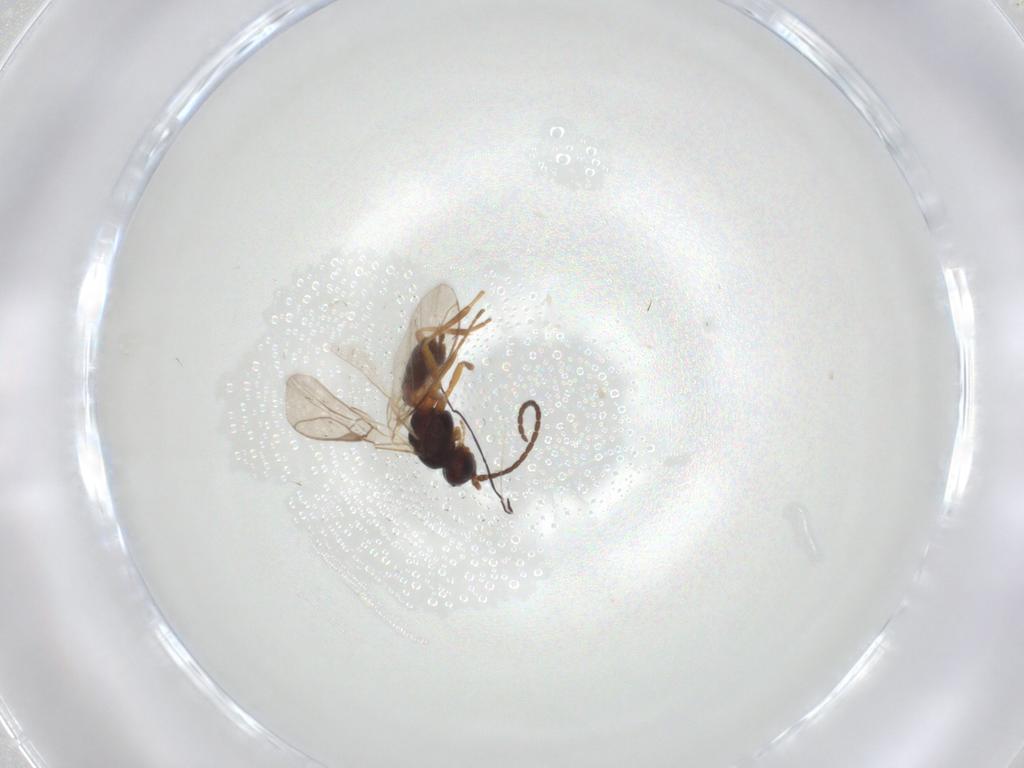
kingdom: Animalia
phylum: Arthropoda
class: Insecta
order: Hymenoptera
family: Braconidae
